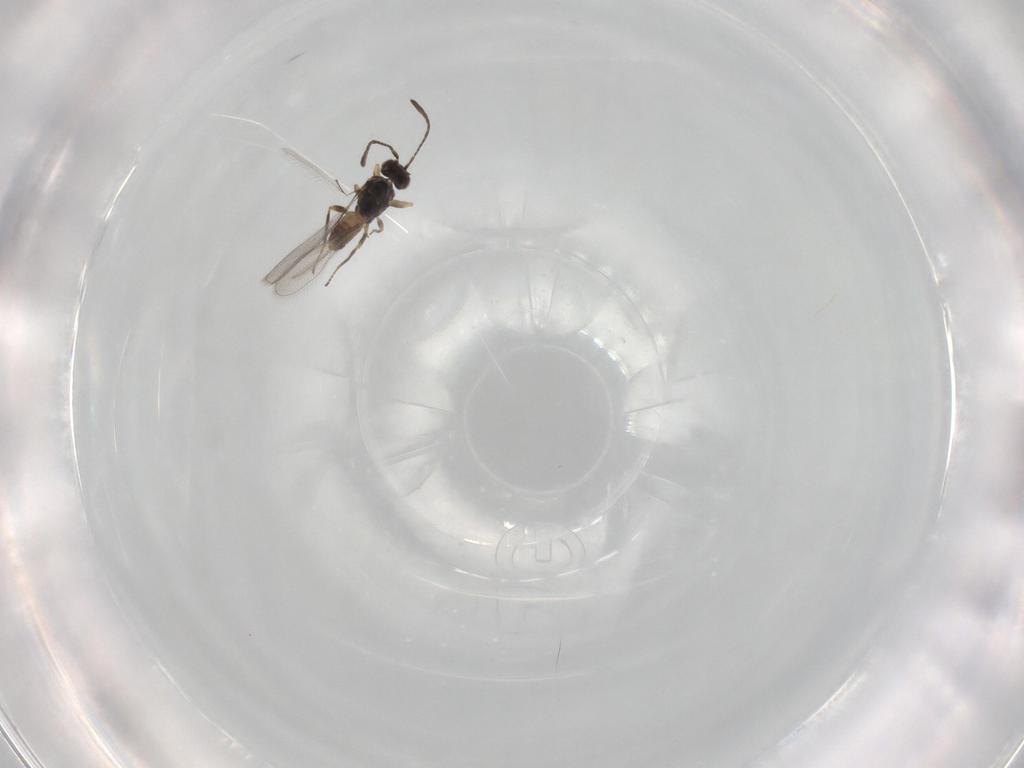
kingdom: Animalia
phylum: Arthropoda
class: Insecta
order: Hymenoptera
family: Mymaridae
